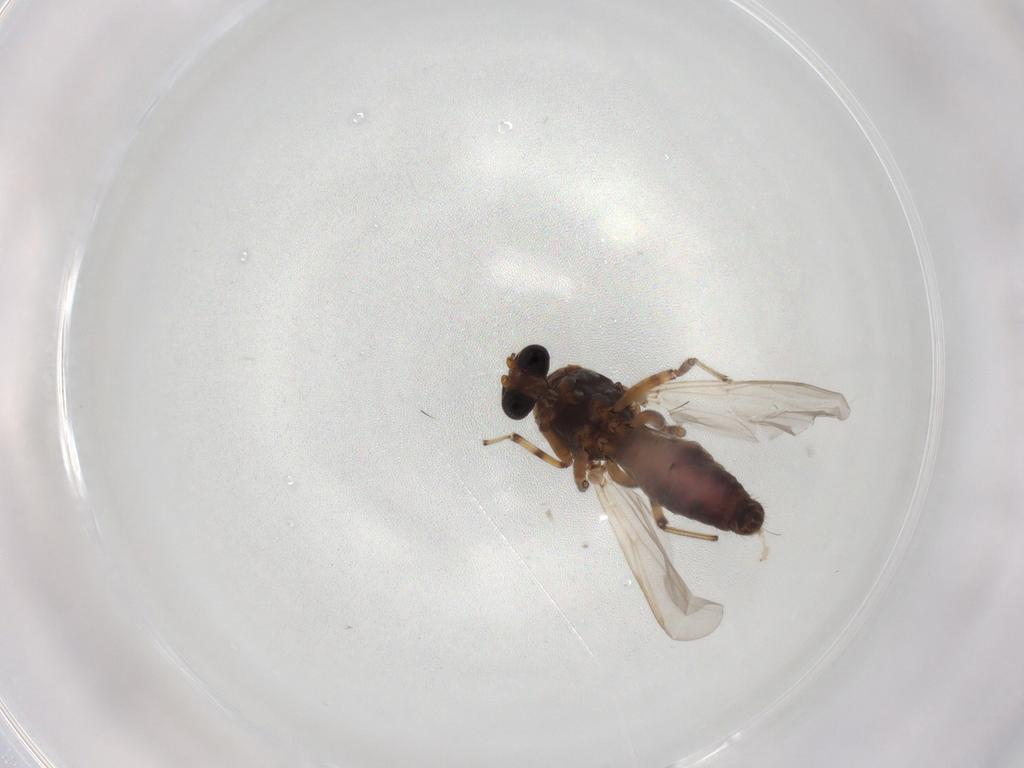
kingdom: Animalia
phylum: Arthropoda
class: Insecta
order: Diptera
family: Ceratopogonidae
